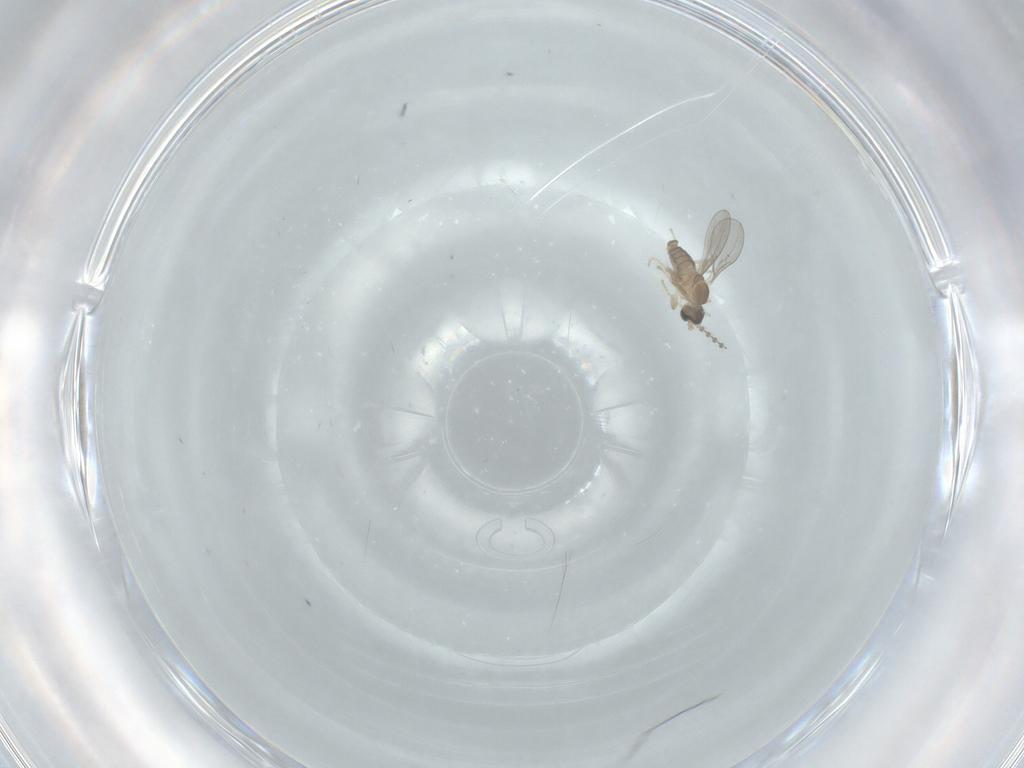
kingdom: Animalia
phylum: Arthropoda
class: Insecta
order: Diptera
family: Cecidomyiidae
